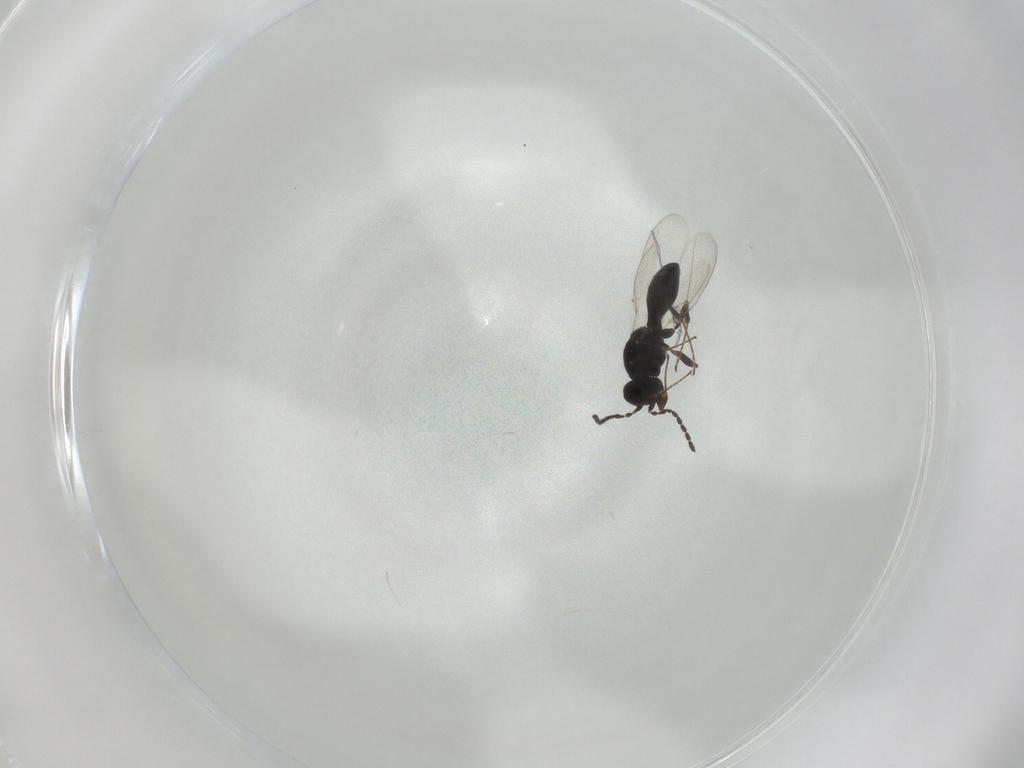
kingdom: Animalia
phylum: Arthropoda
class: Insecta
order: Hymenoptera
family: Platygastridae
